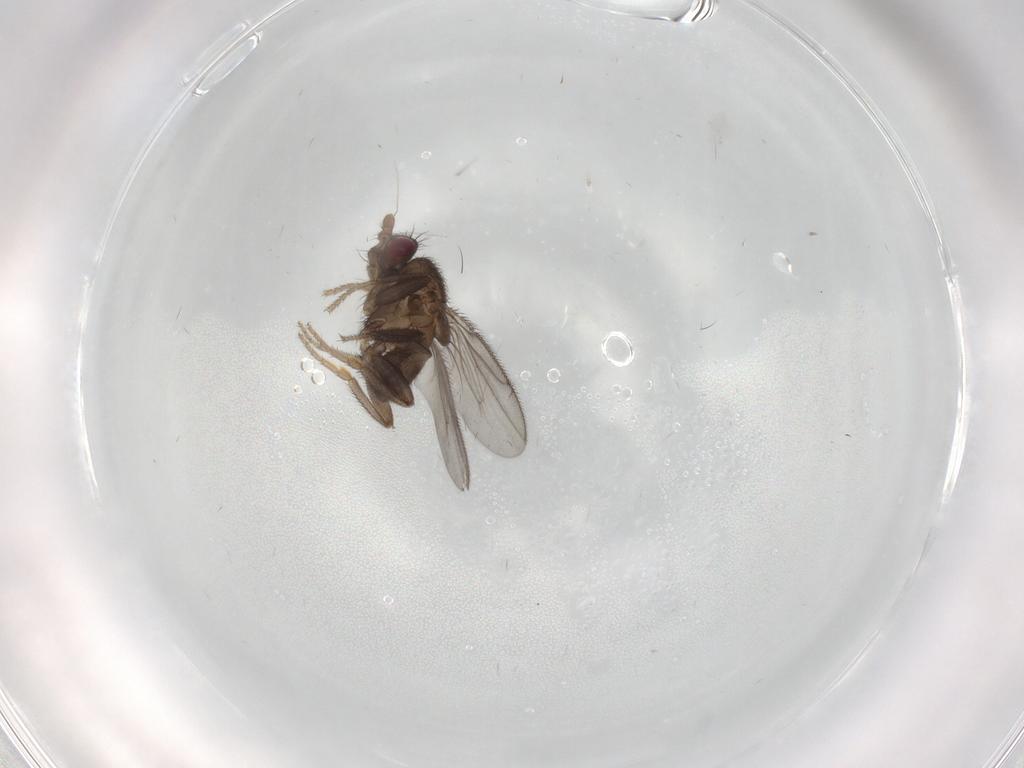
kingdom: Animalia
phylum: Arthropoda
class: Insecta
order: Diptera
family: Sphaeroceridae
